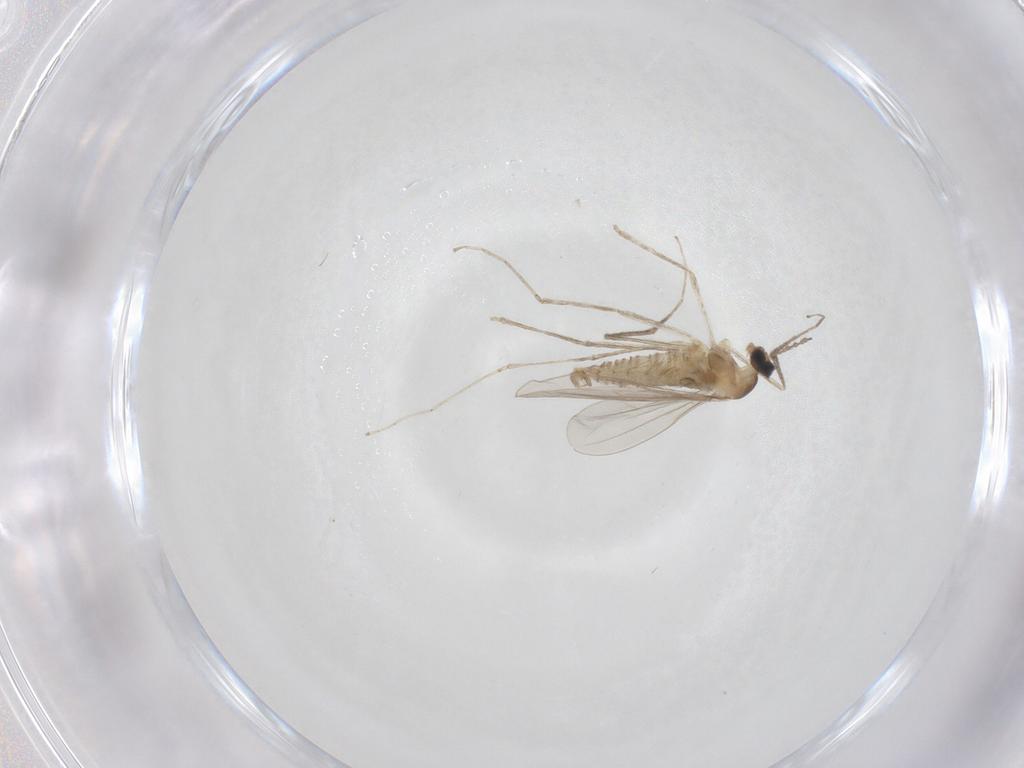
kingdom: Animalia
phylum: Arthropoda
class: Insecta
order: Diptera
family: Cecidomyiidae
